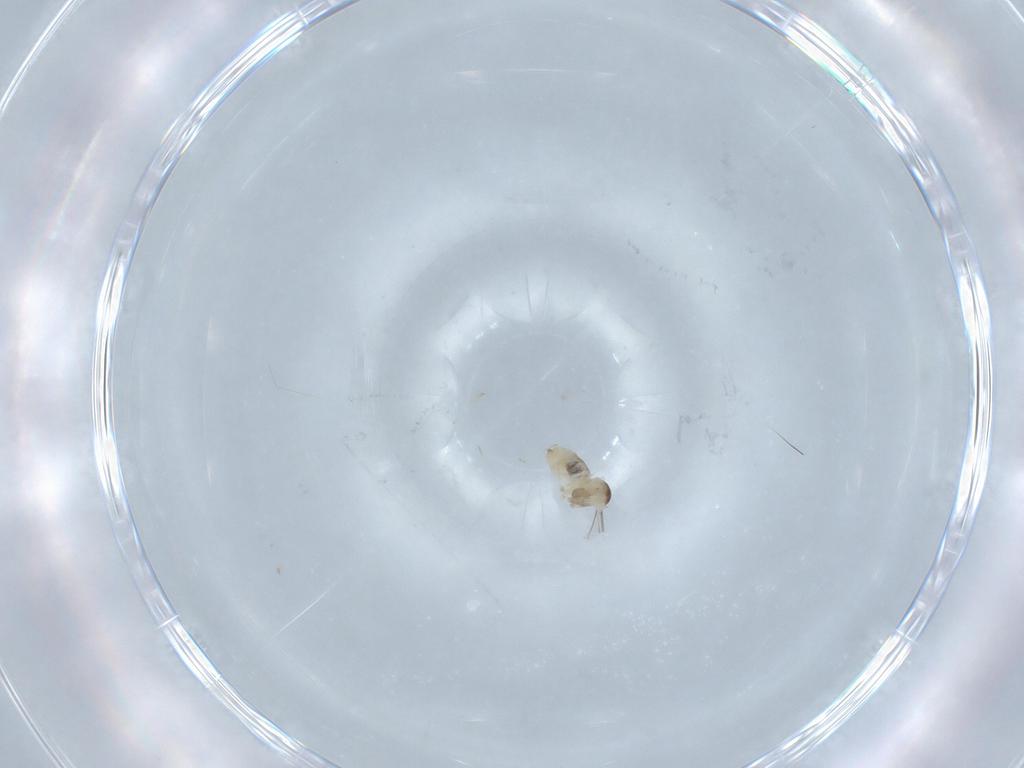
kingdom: Animalia
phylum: Arthropoda
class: Insecta
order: Diptera
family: Cecidomyiidae
